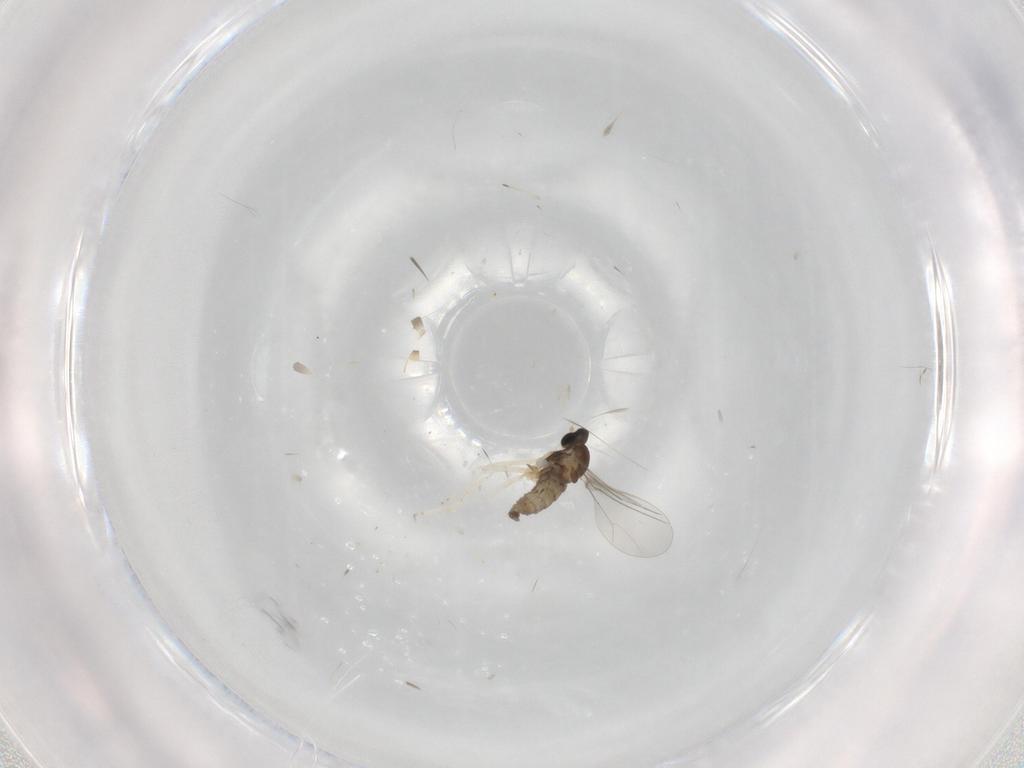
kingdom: Animalia
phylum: Arthropoda
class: Insecta
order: Diptera
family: Cecidomyiidae
